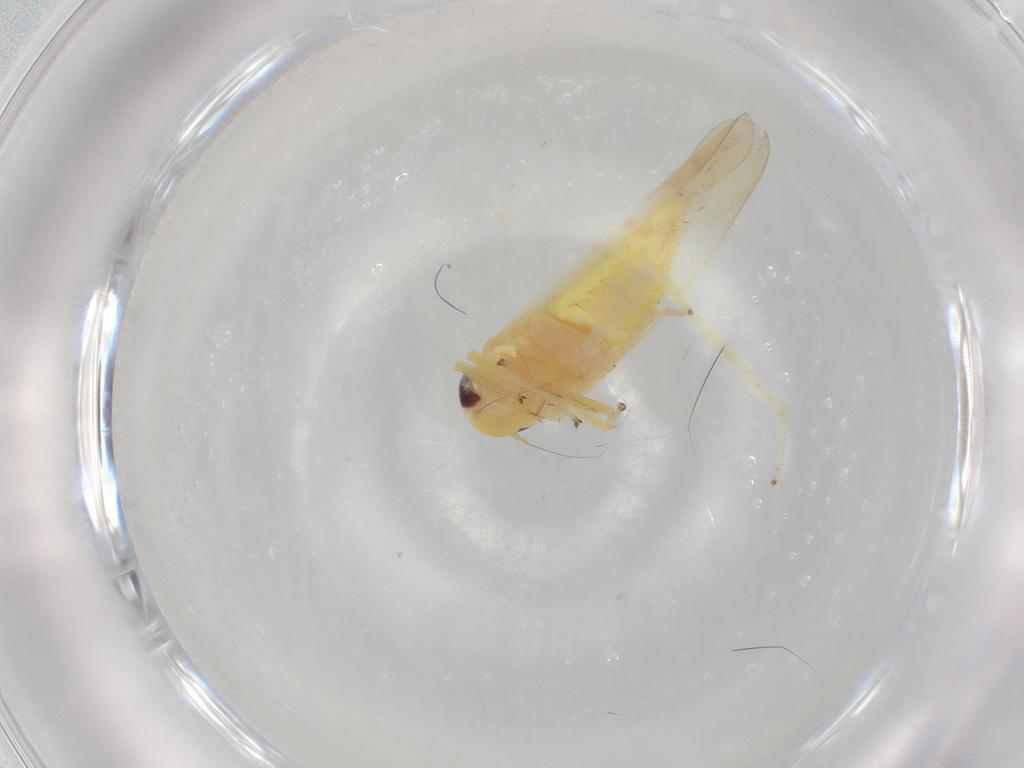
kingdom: Animalia
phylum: Arthropoda
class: Insecta
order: Hemiptera
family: Cicadellidae
